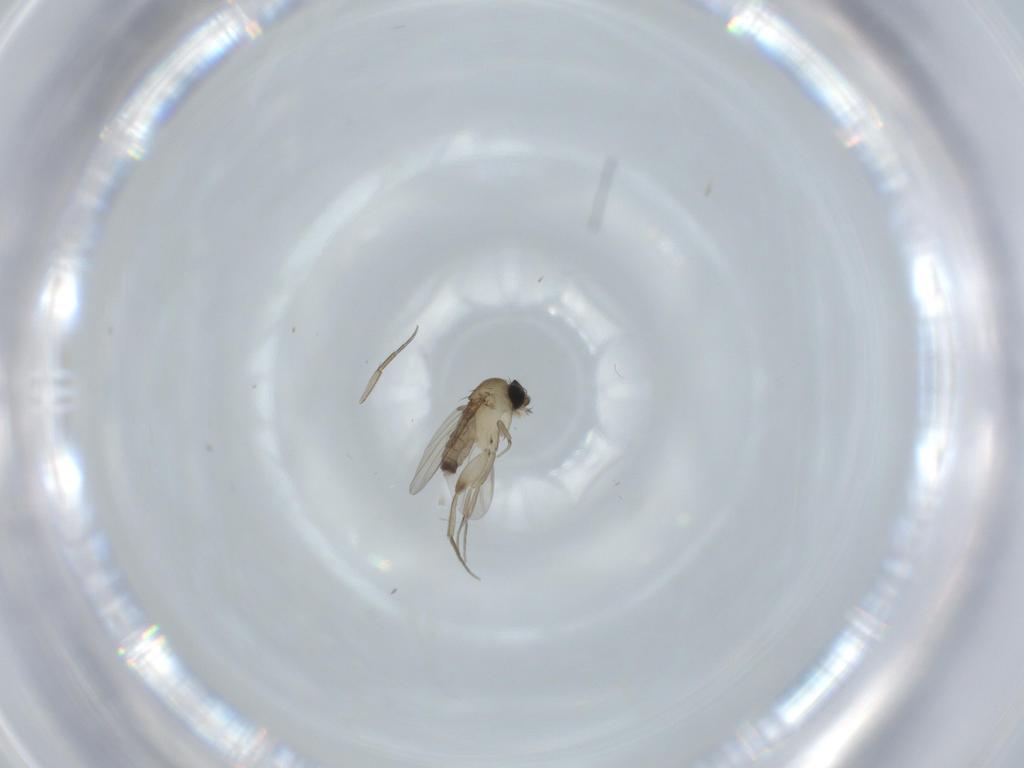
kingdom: Animalia
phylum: Arthropoda
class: Insecta
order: Diptera
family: Phoridae
